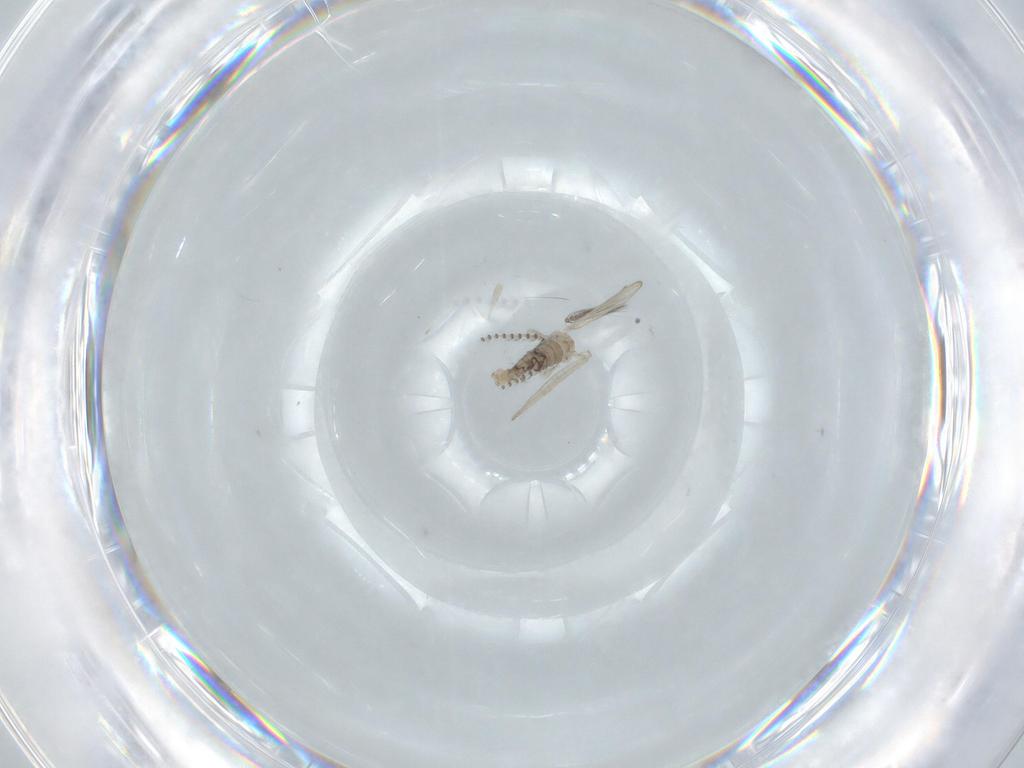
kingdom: Animalia
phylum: Arthropoda
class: Insecta
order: Diptera
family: Psychodidae
